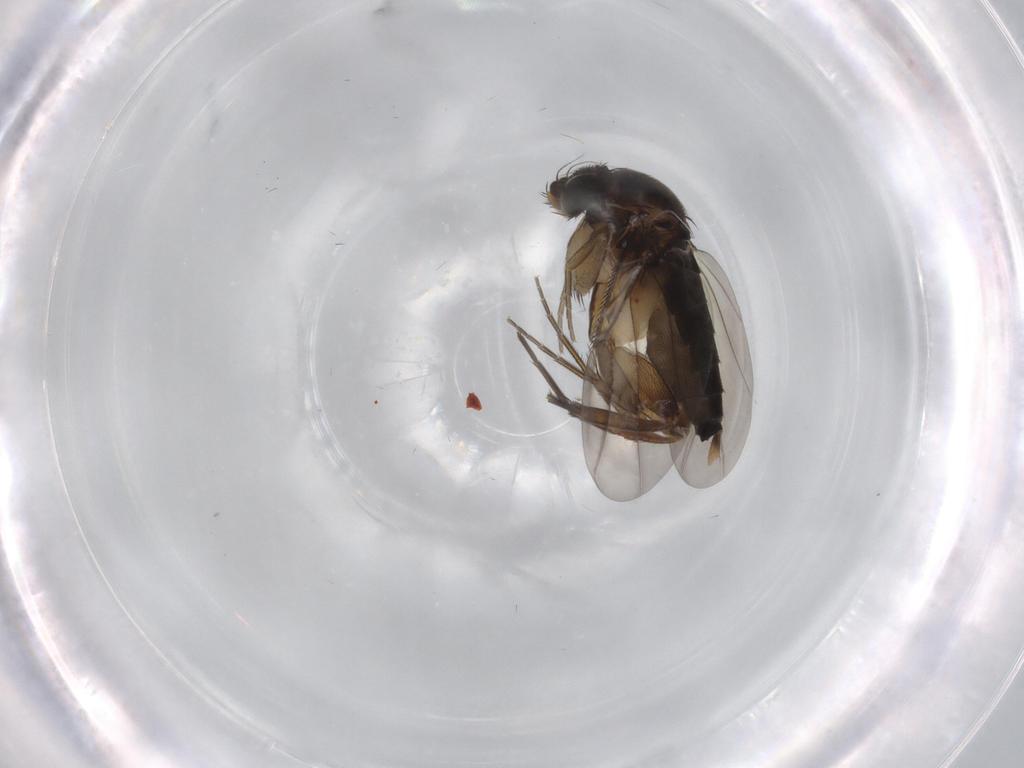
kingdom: Animalia
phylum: Arthropoda
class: Insecta
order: Diptera
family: Phoridae
